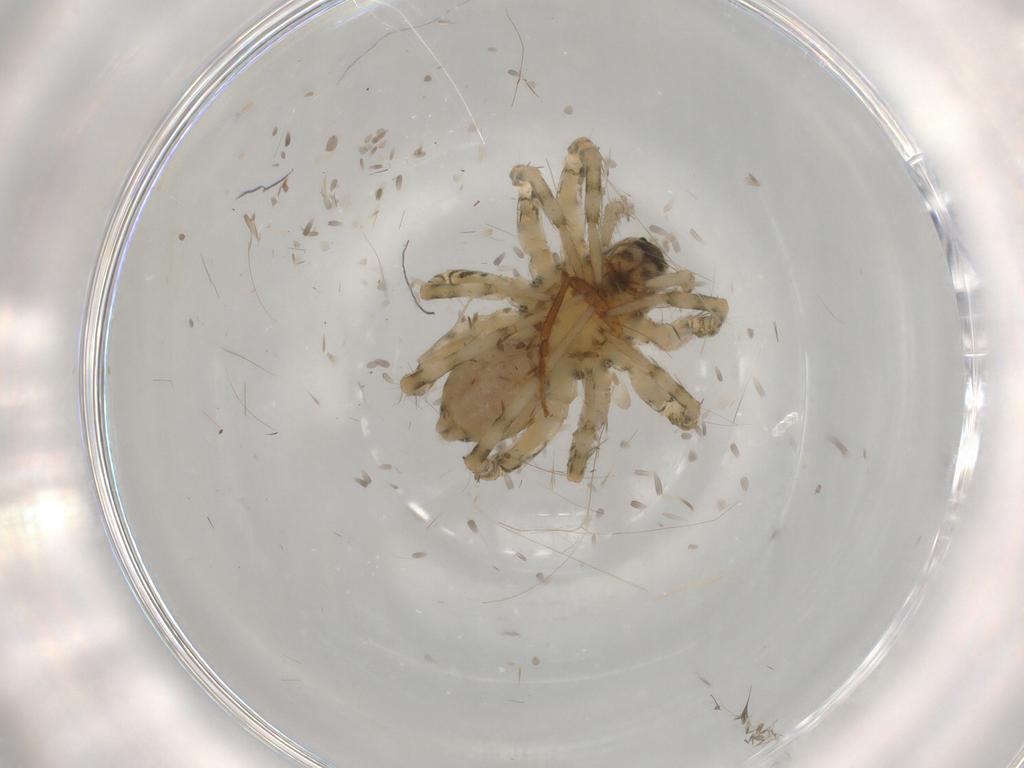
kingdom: Animalia
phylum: Arthropoda
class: Arachnida
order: Araneae
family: Lycosidae
